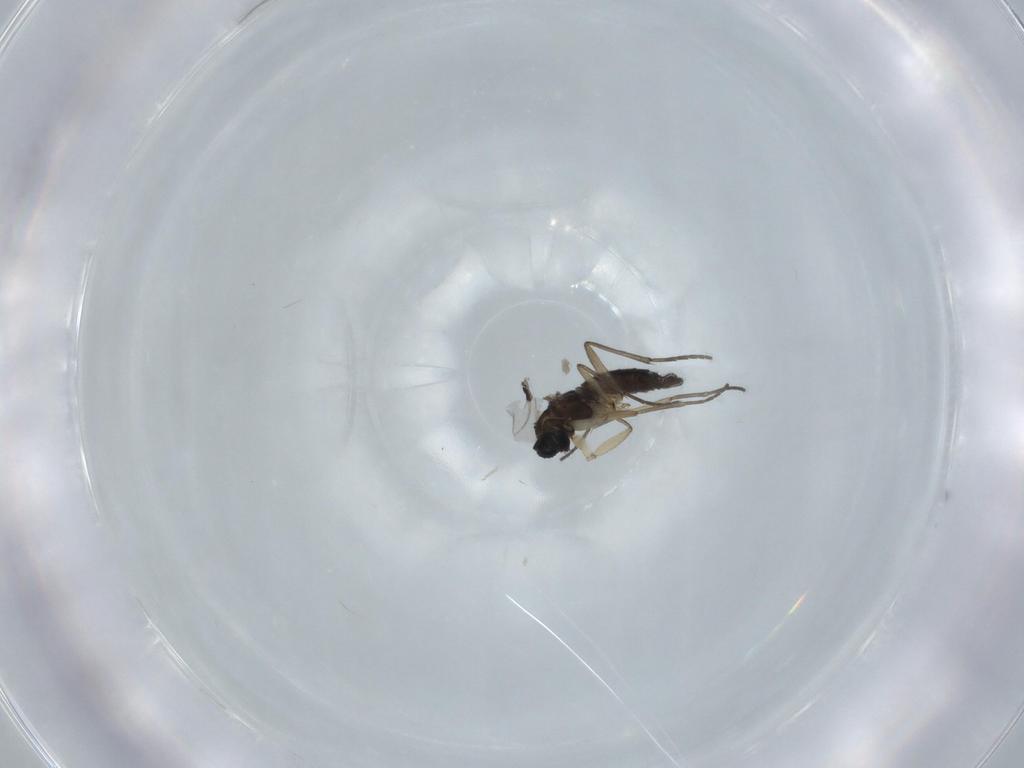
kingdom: Animalia
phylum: Arthropoda
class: Insecta
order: Diptera
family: Sciaridae
